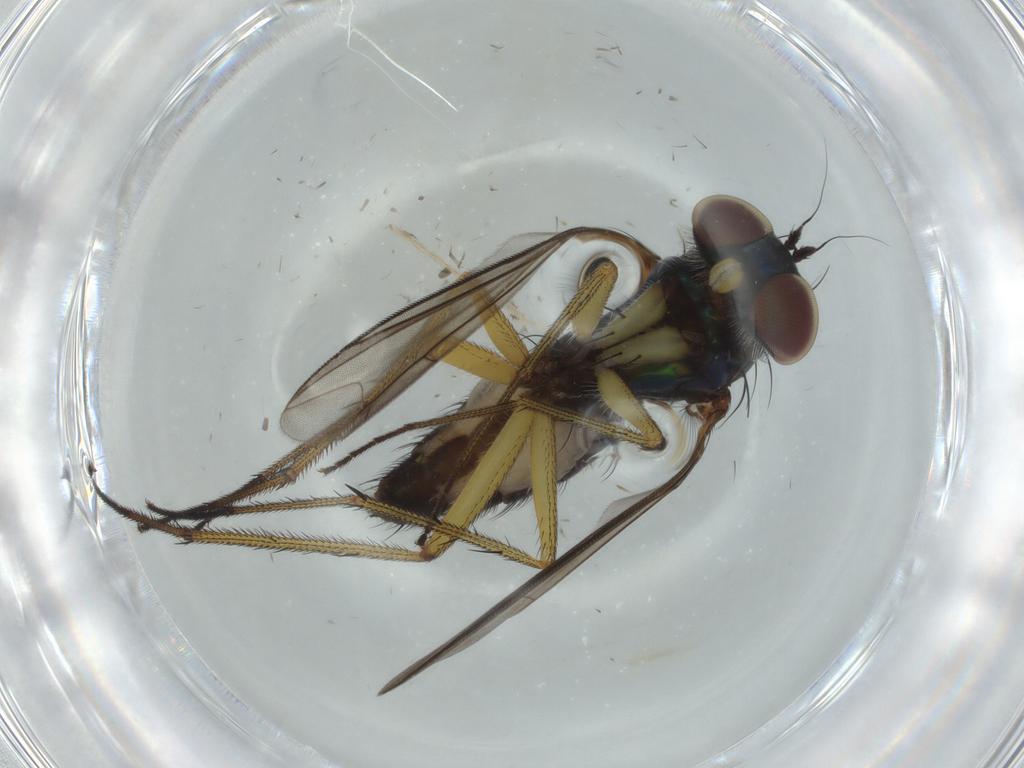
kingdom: Animalia
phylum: Arthropoda
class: Insecta
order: Diptera
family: Dolichopodidae
